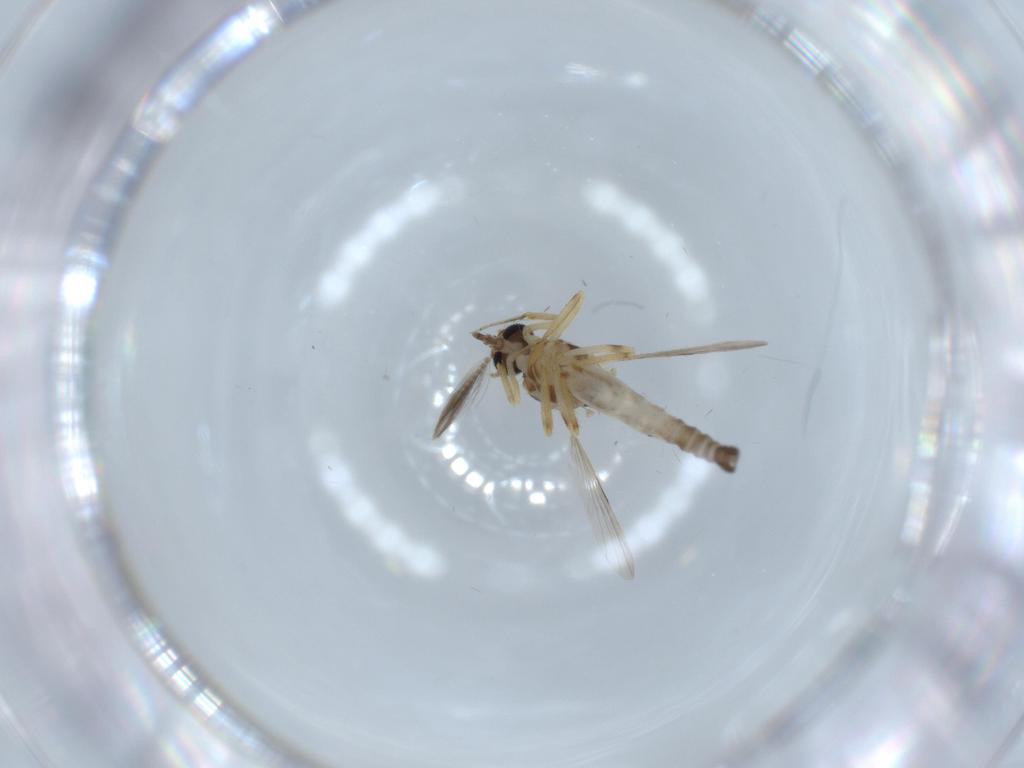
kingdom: Animalia
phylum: Arthropoda
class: Insecta
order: Diptera
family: Ceratopogonidae
